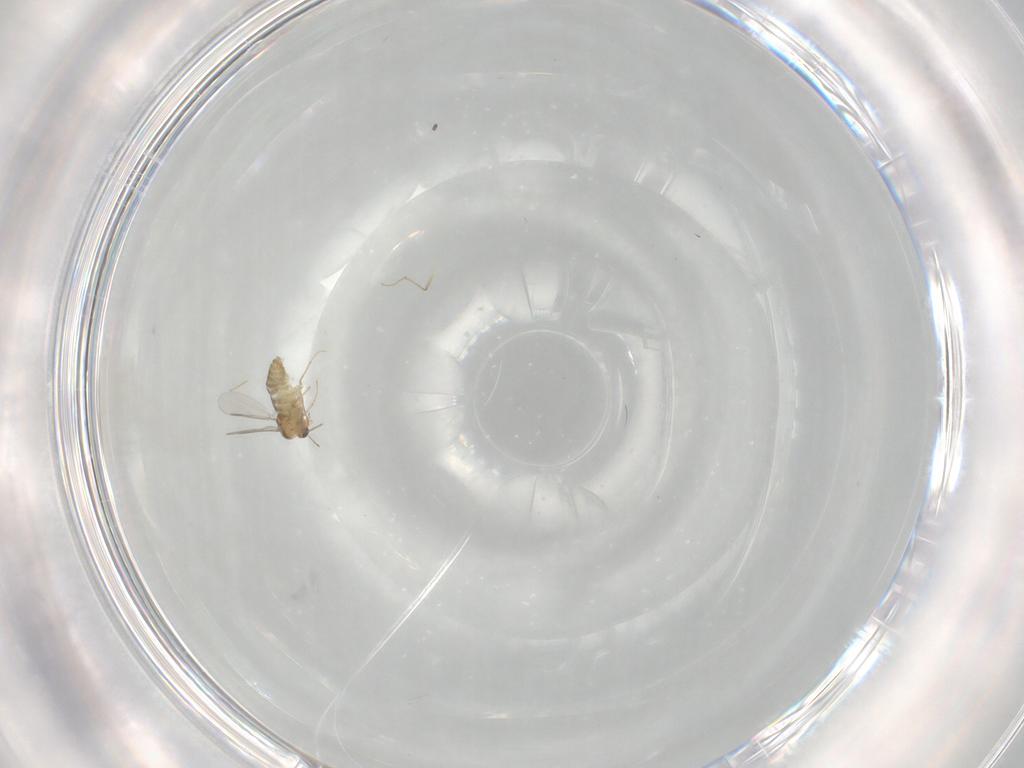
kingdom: Animalia
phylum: Arthropoda
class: Insecta
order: Diptera
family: Chironomidae
